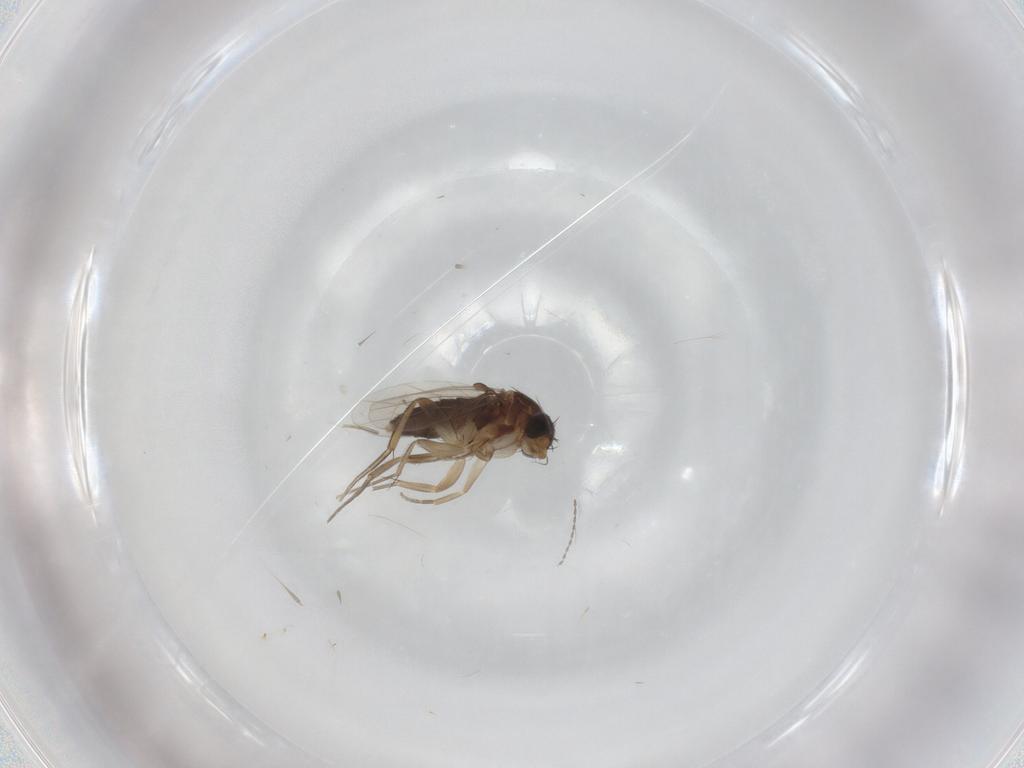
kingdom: Animalia
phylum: Arthropoda
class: Insecta
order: Diptera
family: Phoridae
